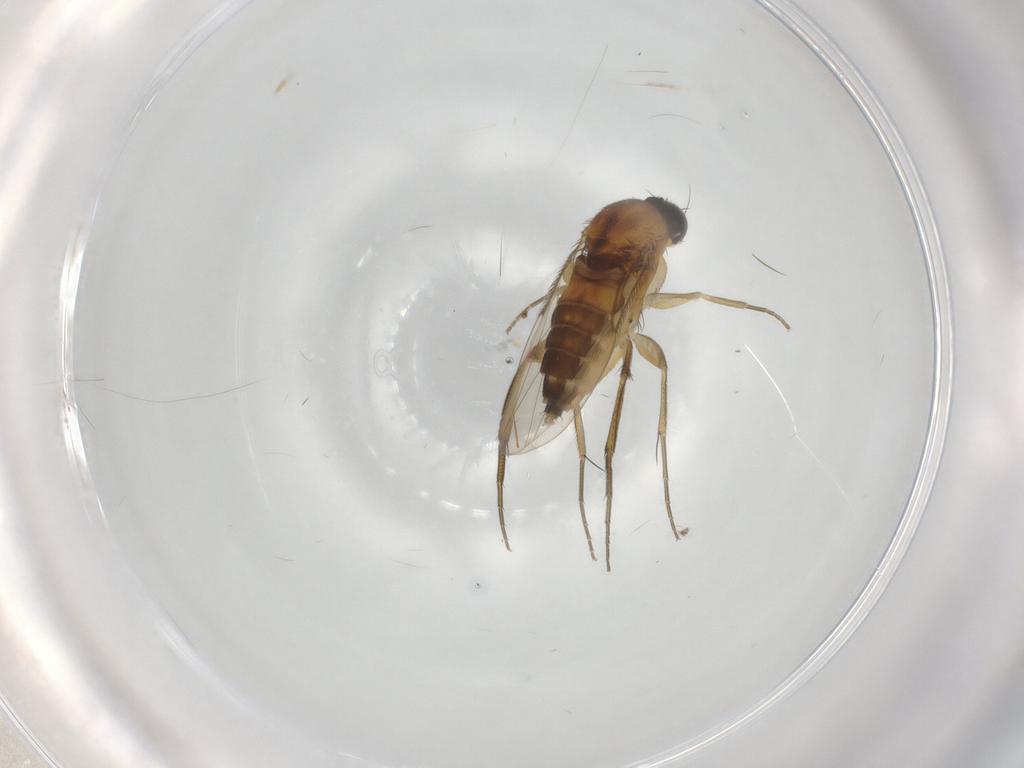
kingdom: Animalia
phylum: Arthropoda
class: Insecta
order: Diptera
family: Phoridae
